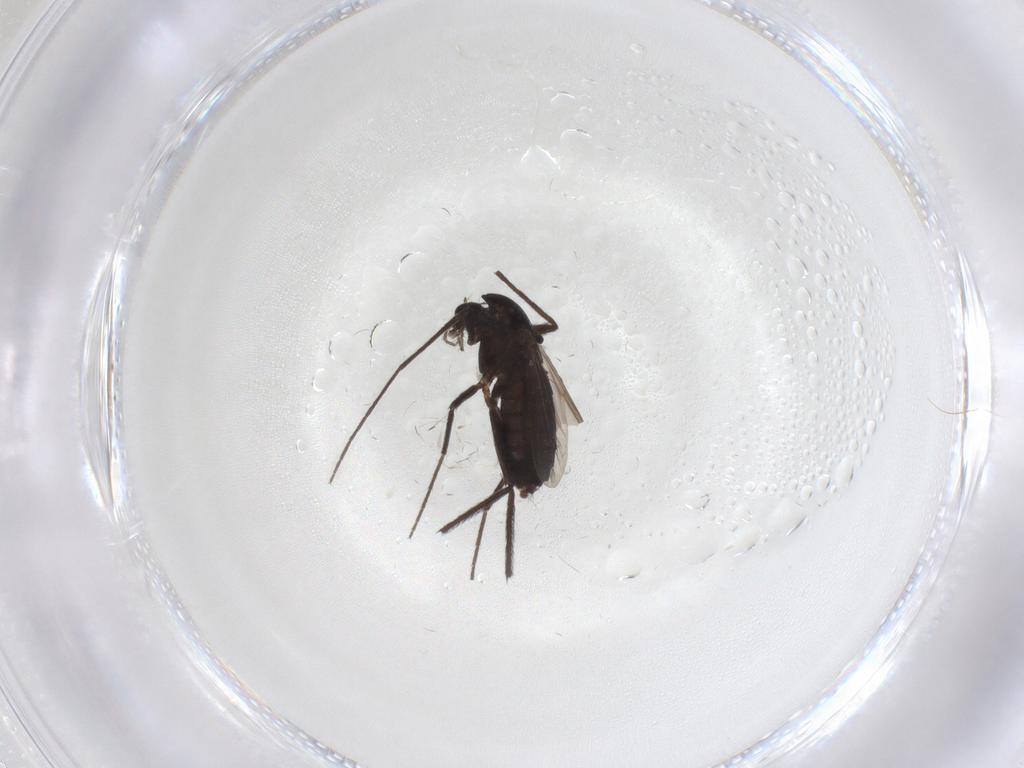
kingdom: Animalia
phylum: Arthropoda
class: Insecta
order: Diptera
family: Chironomidae
